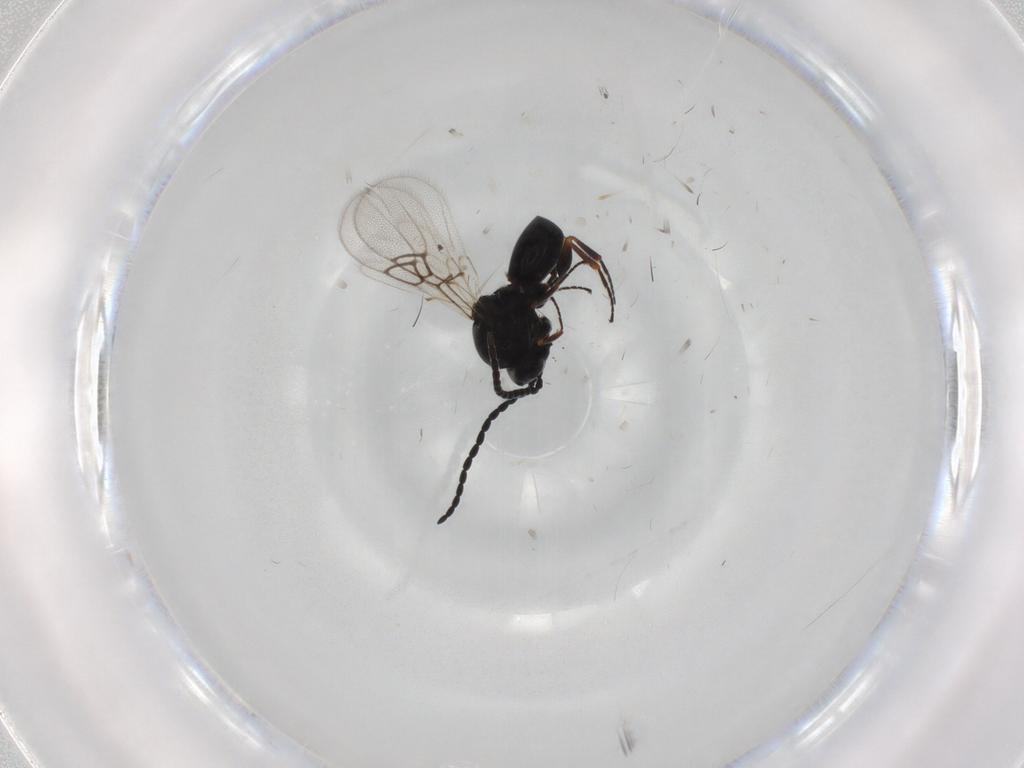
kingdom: Animalia
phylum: Arthropoda
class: Insecta
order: Hymenoptera
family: Figitidae
